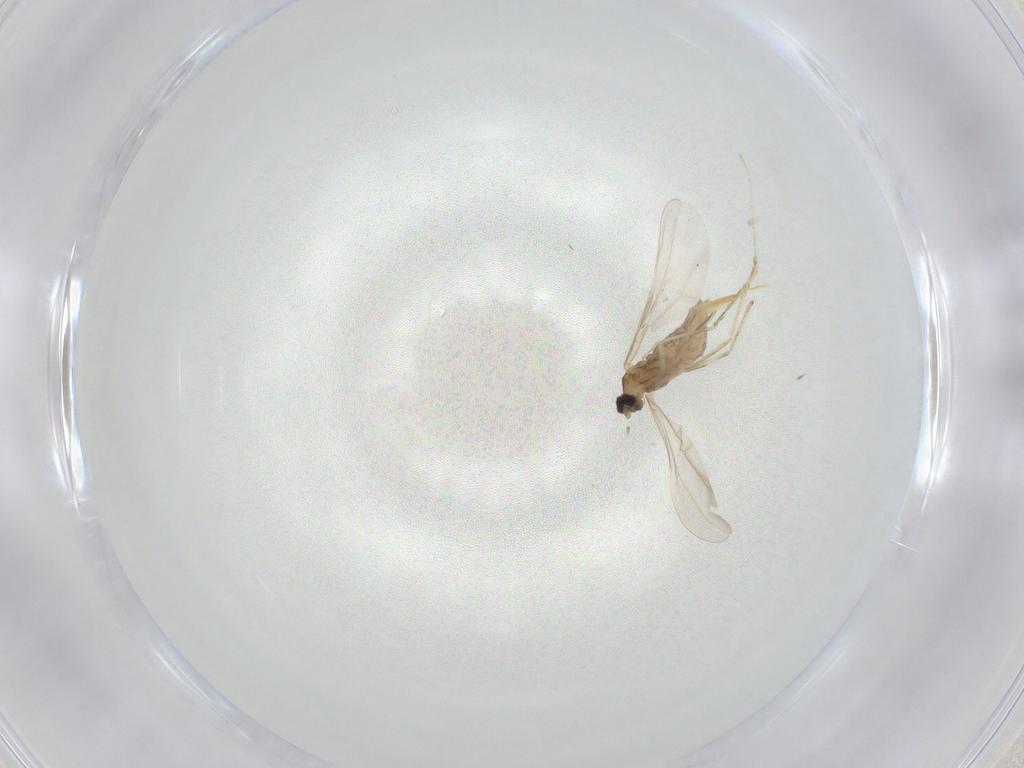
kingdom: Animalia
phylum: Arthropoda
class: Insecta
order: Diptera
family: Cecidomyiidae
